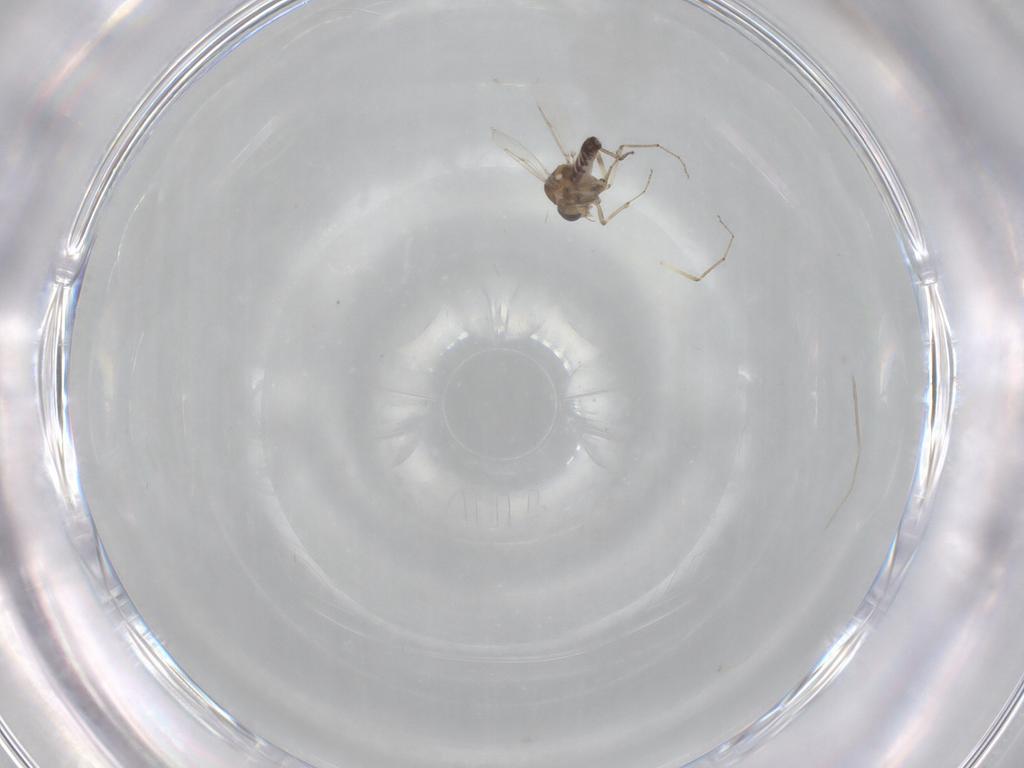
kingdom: Animalia
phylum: Arthropoda
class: Insecta
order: Diptera
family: Ceratopogonidae
